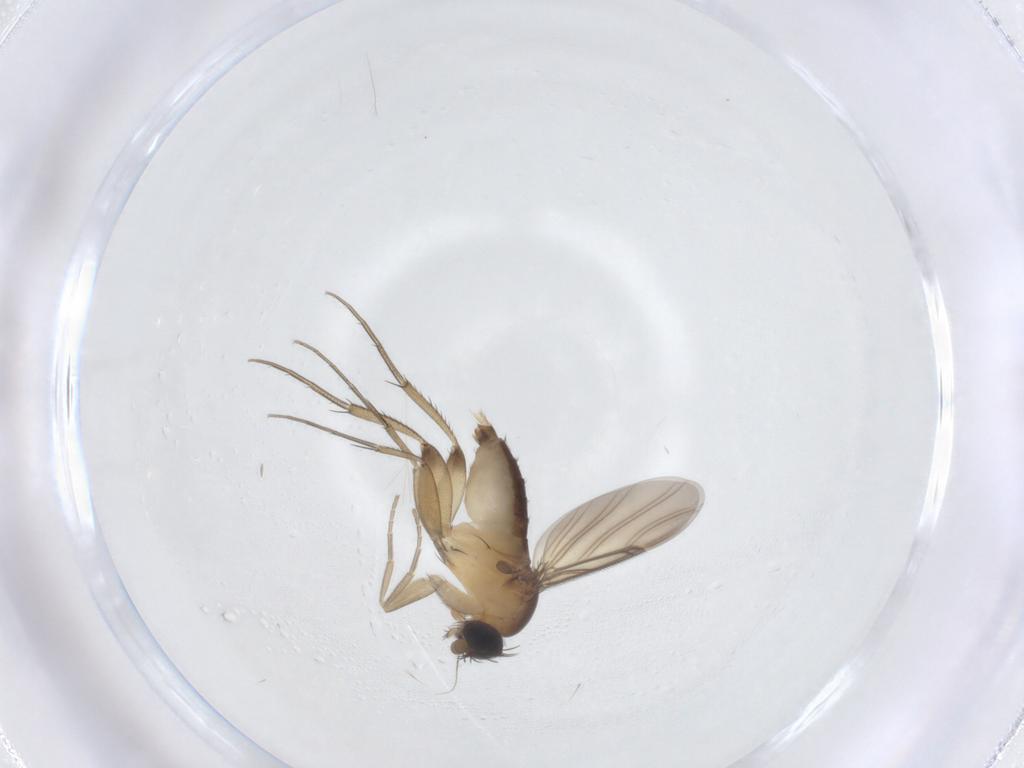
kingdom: Animalia
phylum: Arthropoda
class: Insecta
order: Diptera
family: Phoridae
